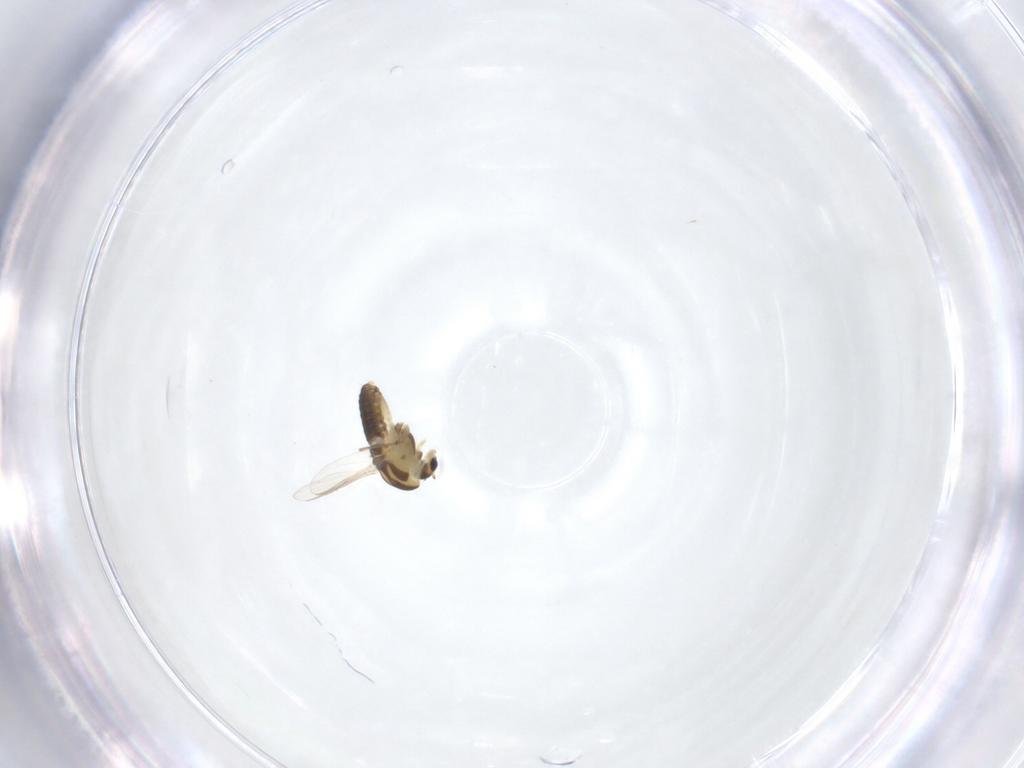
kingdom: Animalia
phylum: Arthropoda
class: Insecta
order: Diptera
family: Chironomidae
